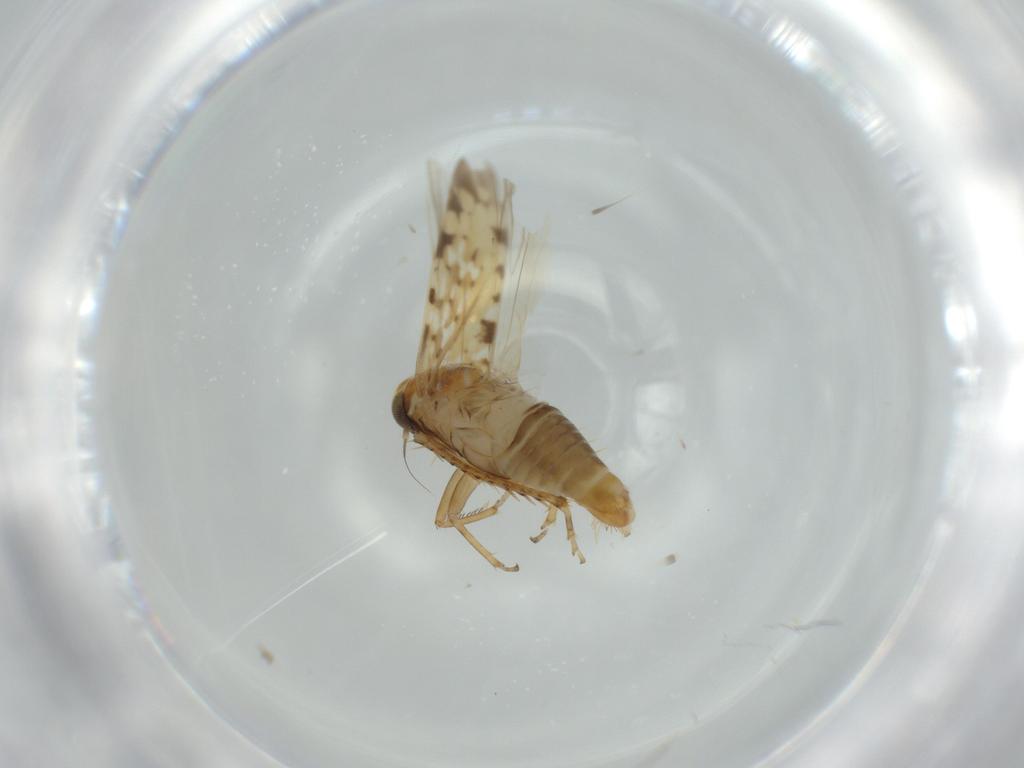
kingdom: Animalia
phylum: Arthropoda
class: Insecta
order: Hemiptera
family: Cicadellidae
